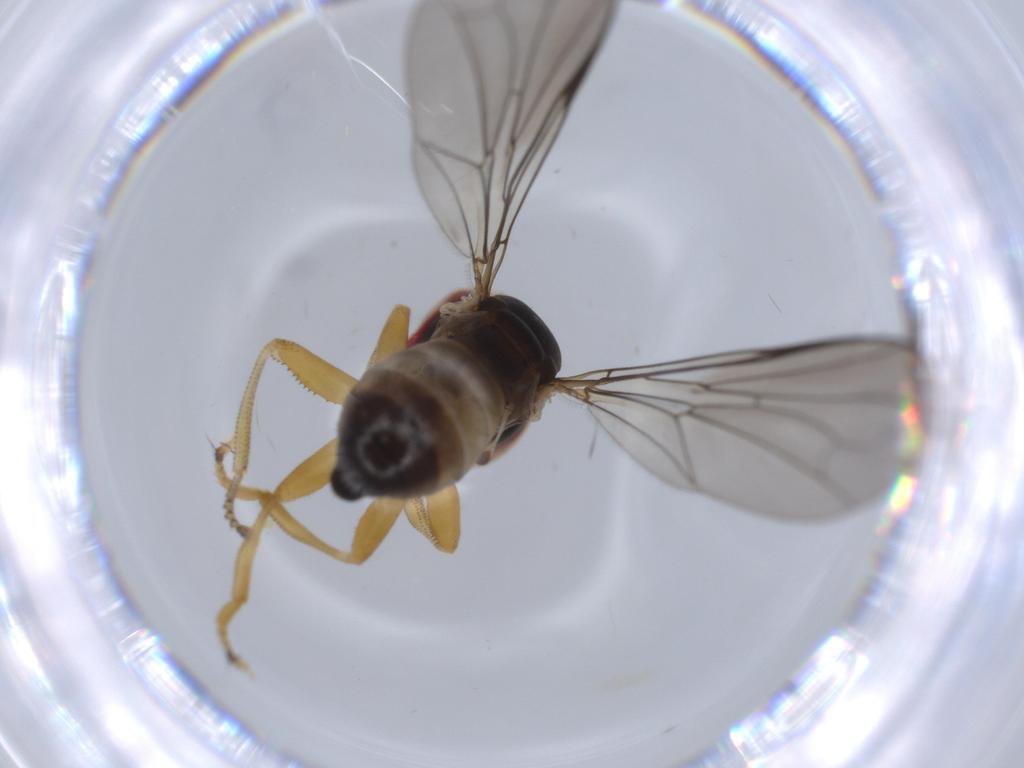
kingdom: Animalia
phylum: Arthropoda
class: Insecta
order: Diptera
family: Pipunculidae
